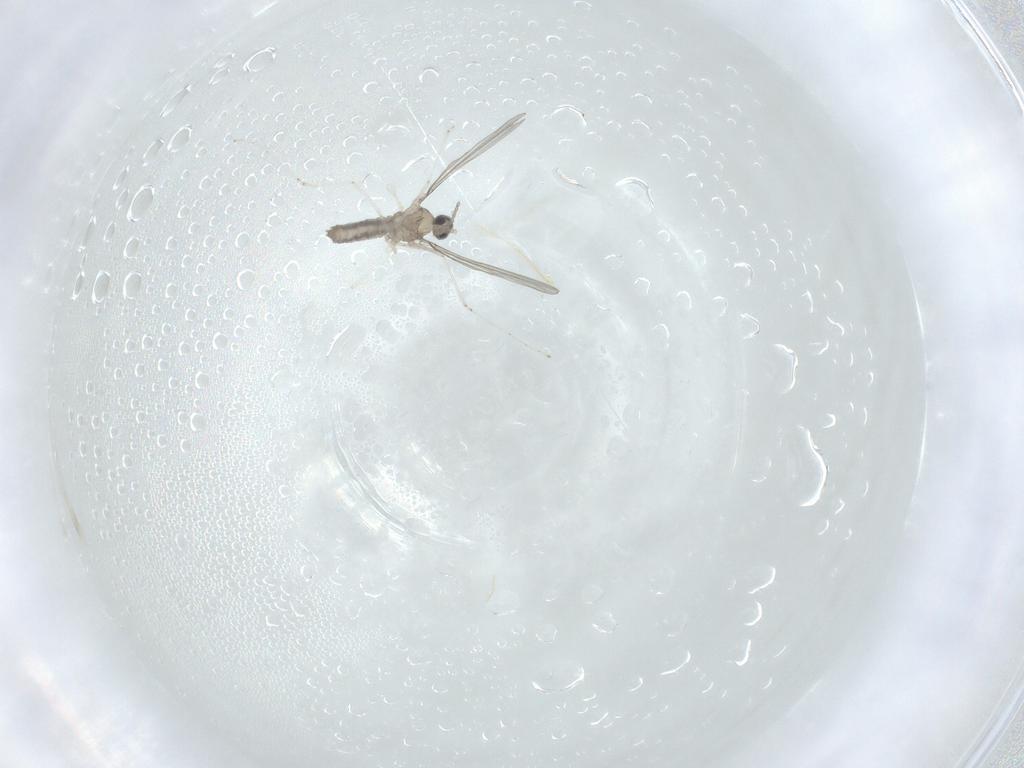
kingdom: Animalia
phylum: Arthropoda
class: Insecta
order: Diptera
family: Cecidomyiidae
